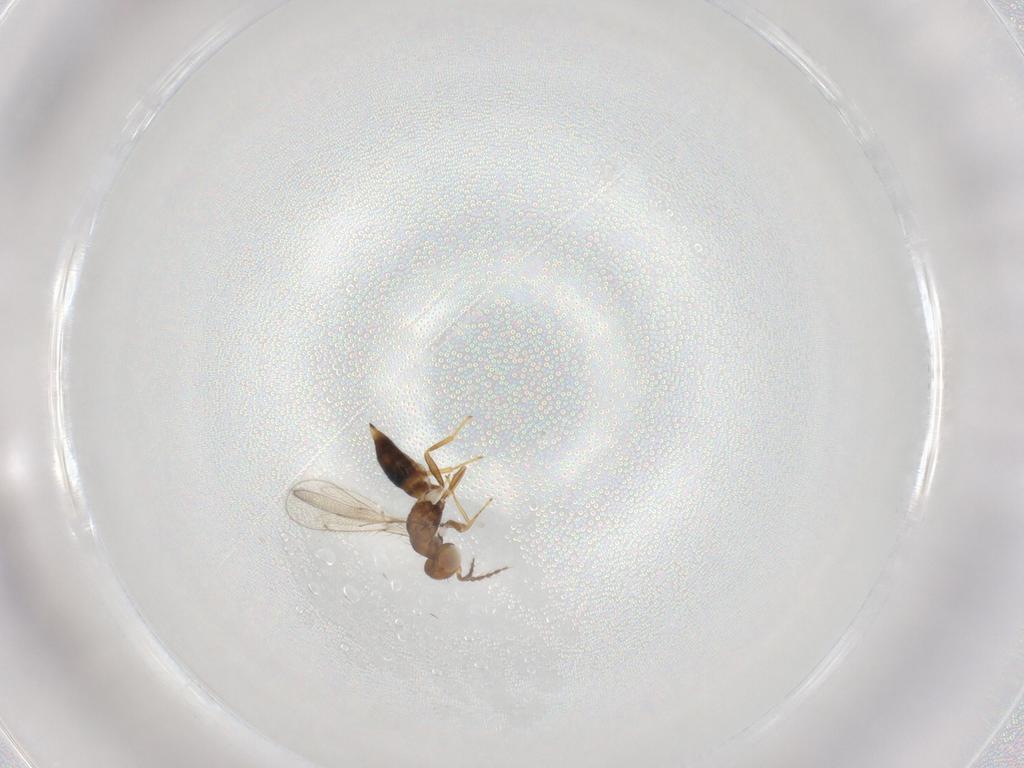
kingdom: Animalia
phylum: Arthropoda
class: Insecta
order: Hymenoptera
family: Eulophidae
